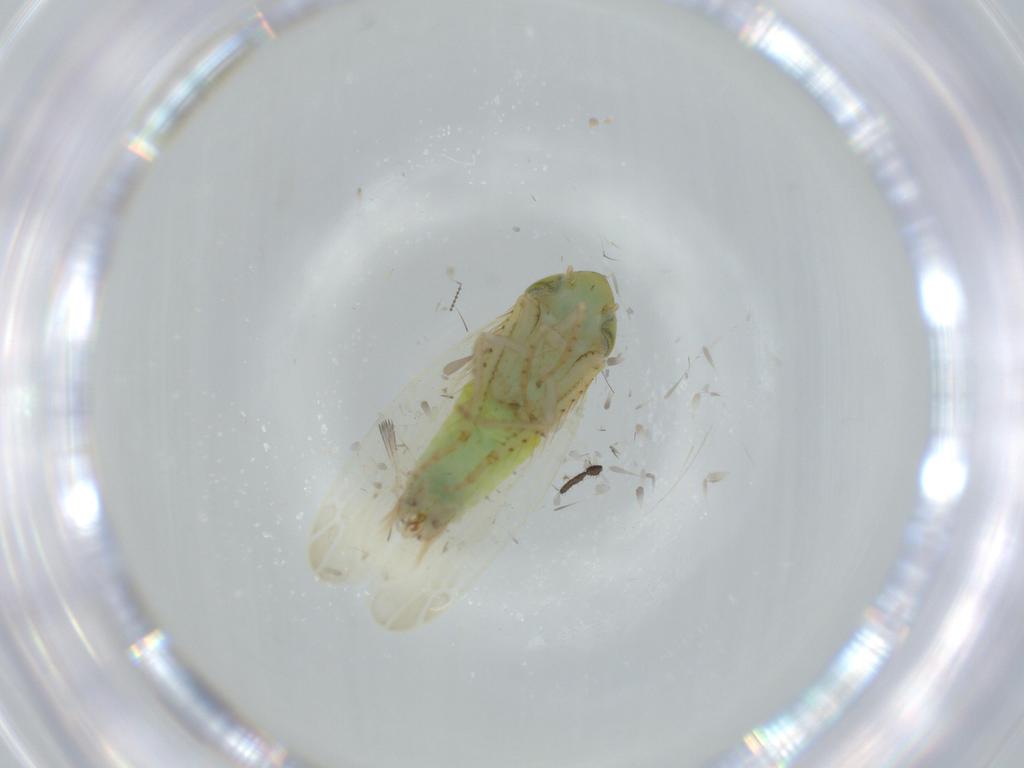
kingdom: Animalia
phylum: Arthropoda
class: Insecta
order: Hemiptera
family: Cicadellidae
